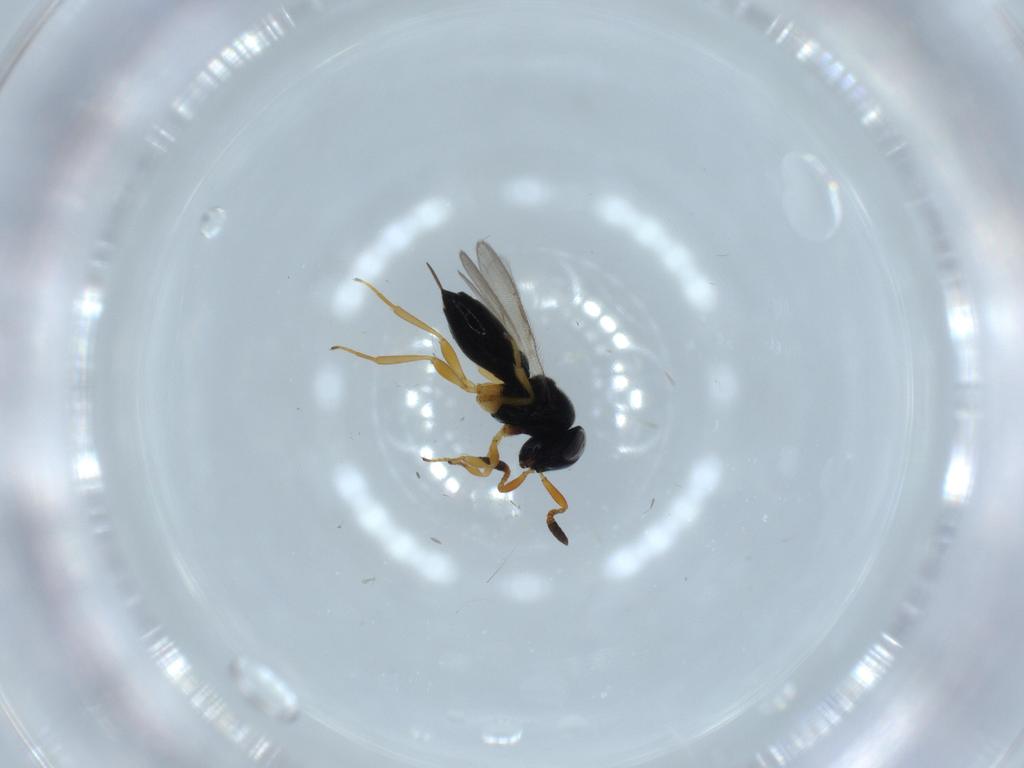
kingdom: Animalia
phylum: Arthropoda
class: Insecta
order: Hymenoptera
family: Scelionidae
